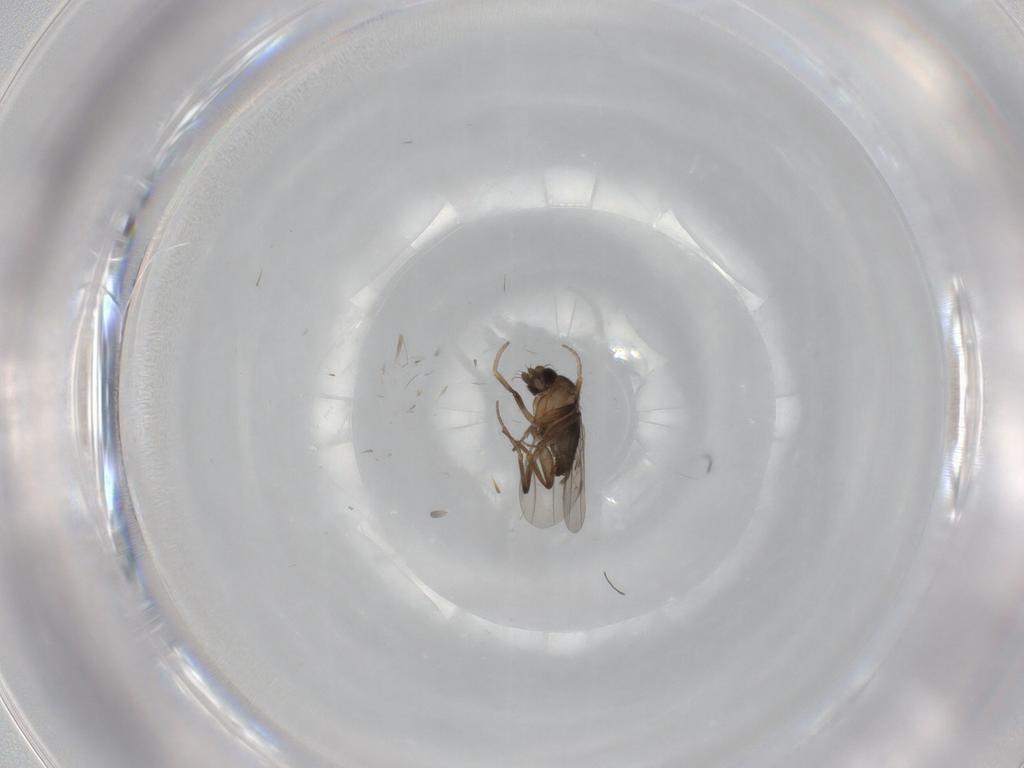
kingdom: Animalia
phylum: Arthropoda
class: Insecta
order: Diptera
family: Phoridae
